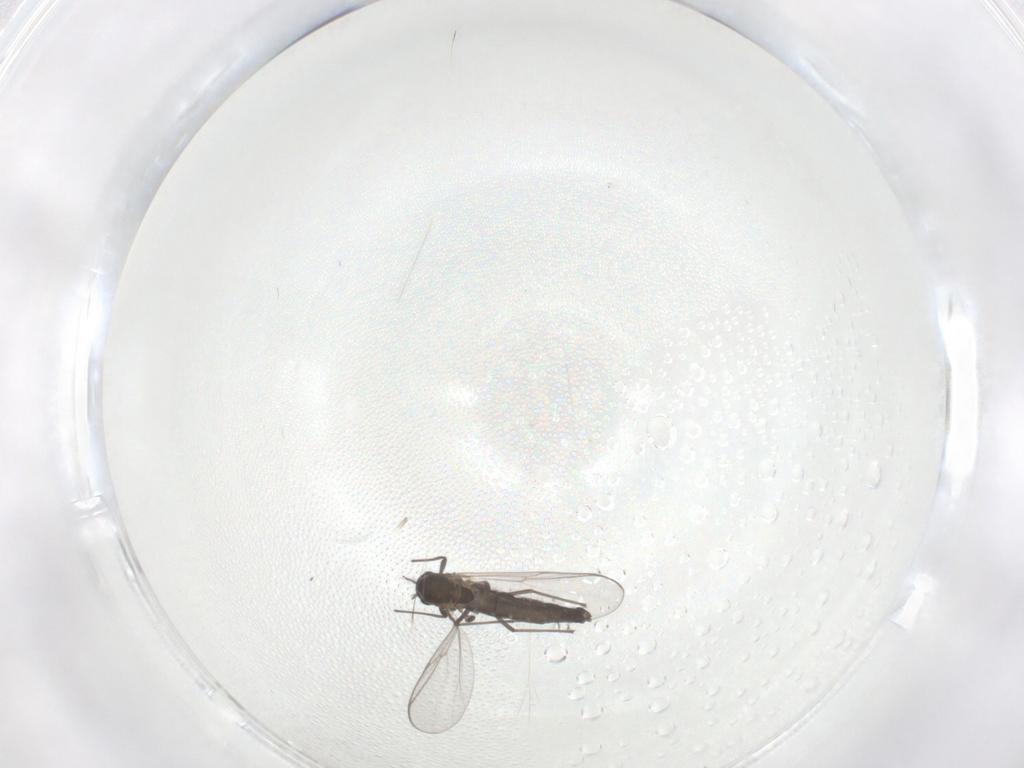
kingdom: Animalia
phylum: Arthropoda
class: Insecta
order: Diptera
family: Chironomidae
